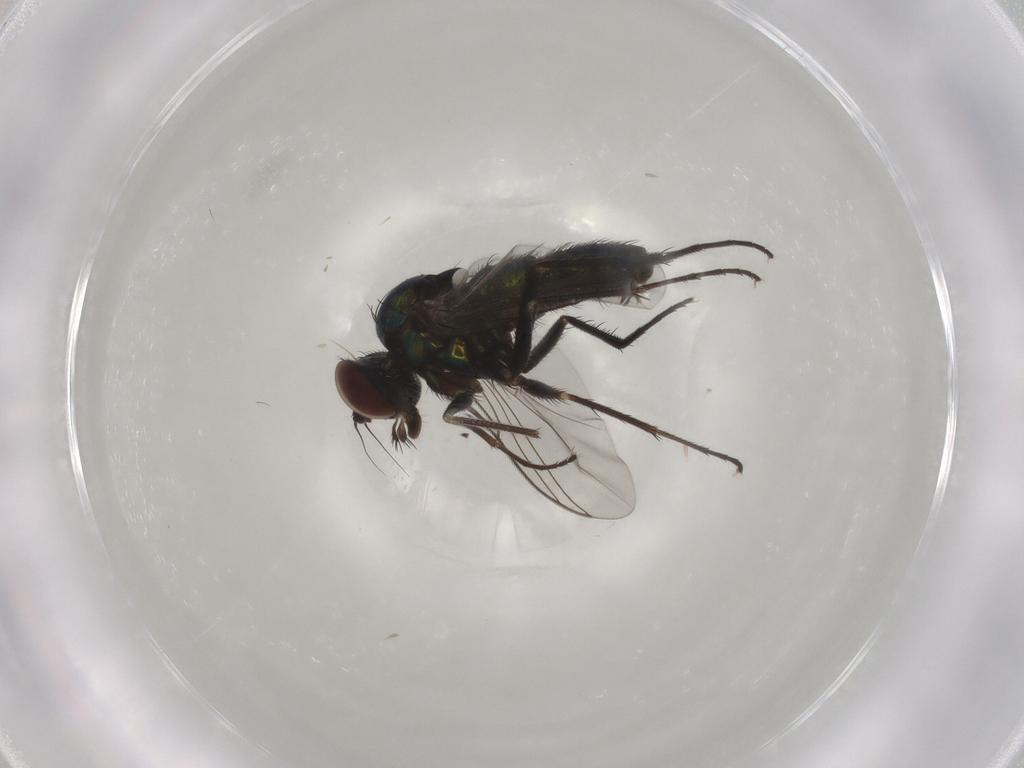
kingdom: Animalia
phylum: Arthropoda
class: Insecta
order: Diptera
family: Dolichopodidae
